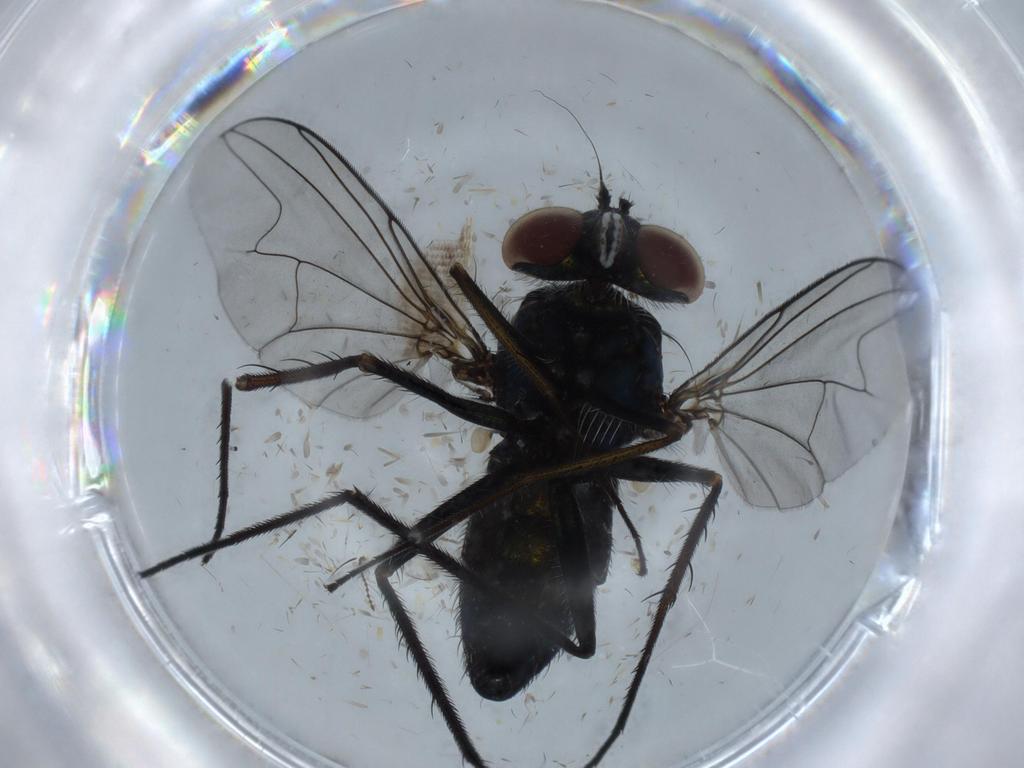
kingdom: Animalia
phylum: Arthropoda
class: Insecta
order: Diptera
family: Dolichopodidae
